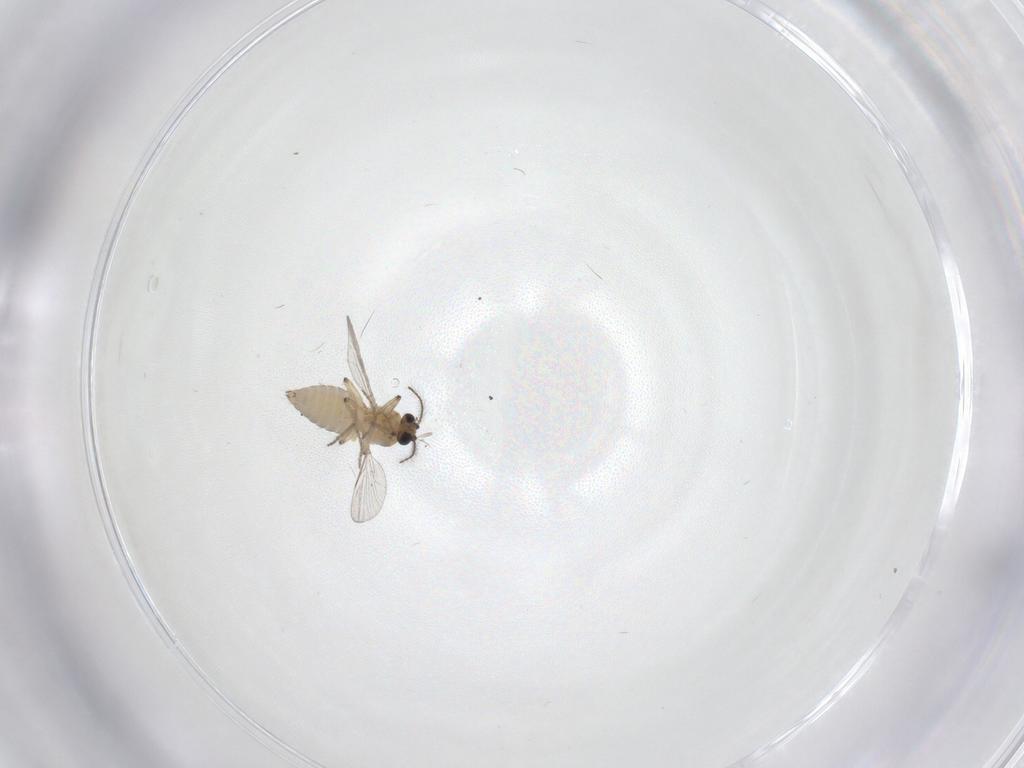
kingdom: Animalia
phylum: Arthropoda
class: Insecta
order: Diptera
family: Ceratopogonidae
